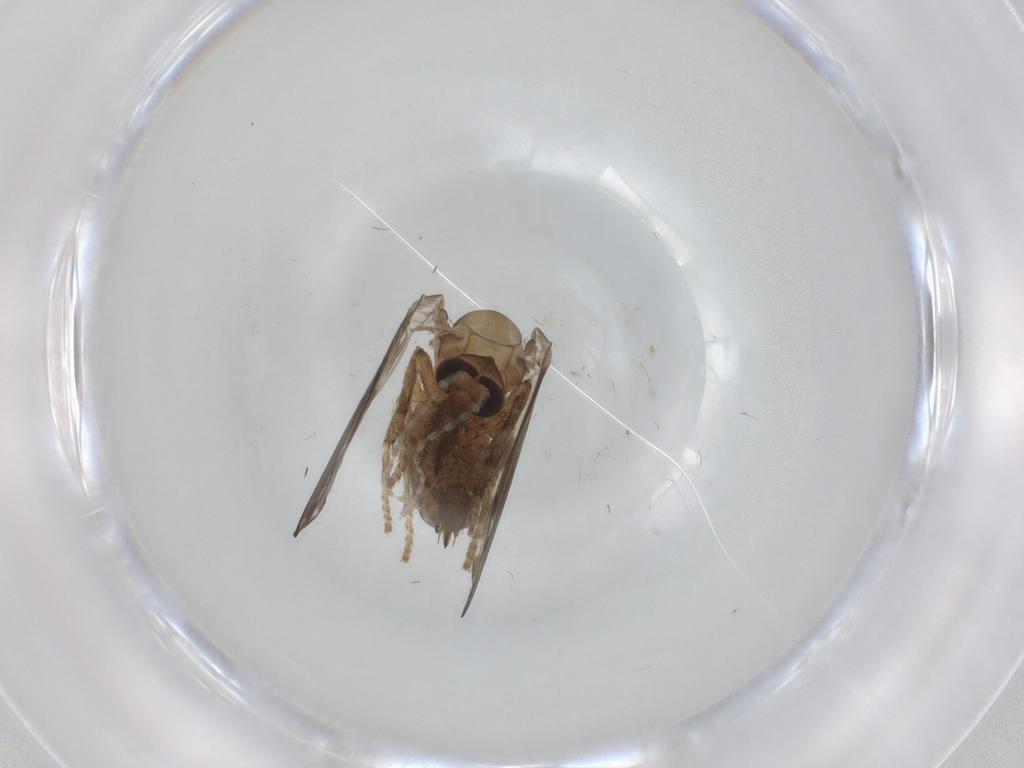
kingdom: Animalia
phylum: Arthropoda
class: Insecta
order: Diptera
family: Psychodidae
